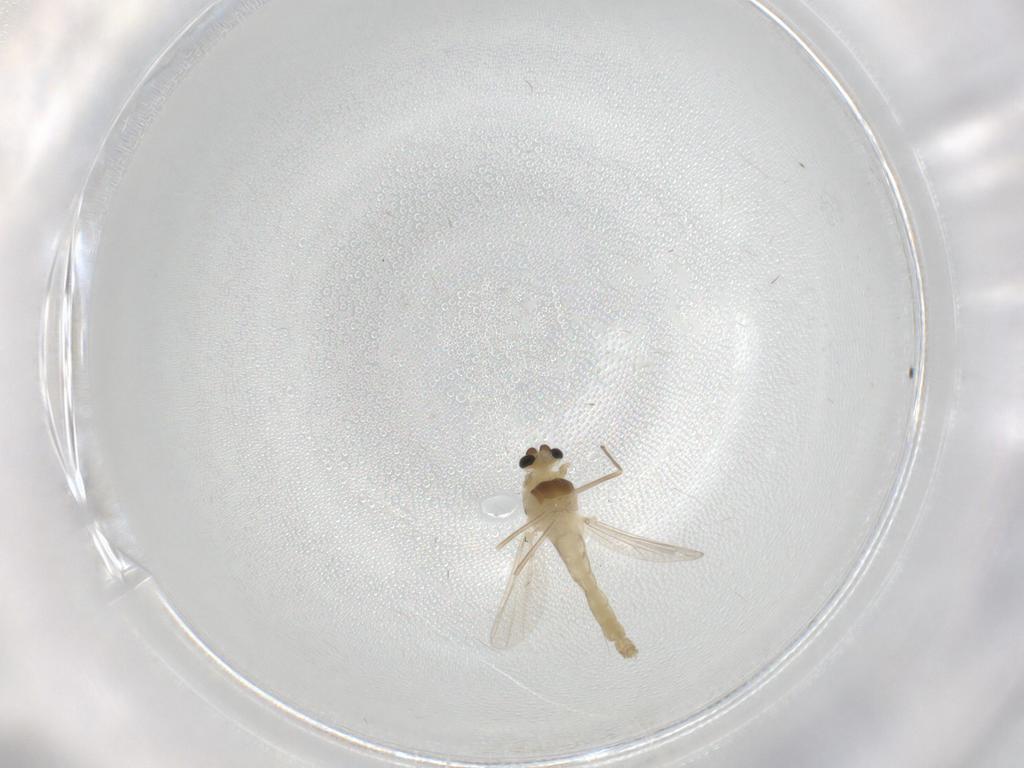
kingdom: Animalia
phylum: Arthropoda
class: Insecta
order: Diptera
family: Chironomidae
